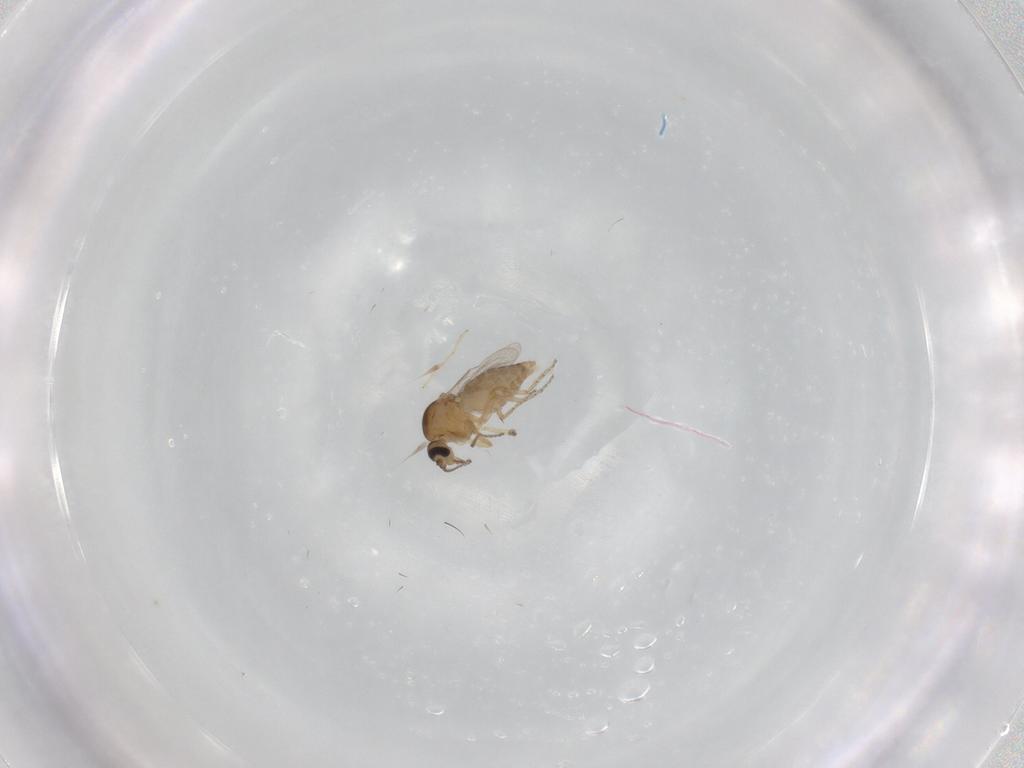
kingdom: Animalia
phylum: Arthropoda
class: Insecta
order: Diptera
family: Ceratopogonidae
